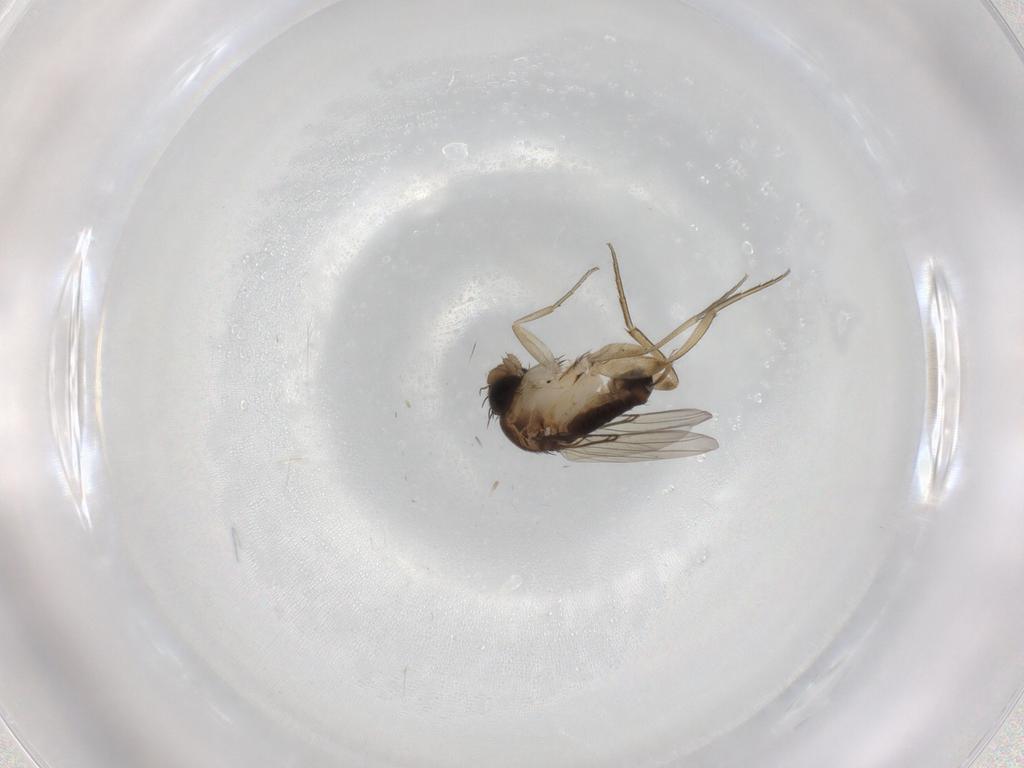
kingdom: Animalia
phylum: Arthropoda
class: Insecta
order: Diptera
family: Phoridae
